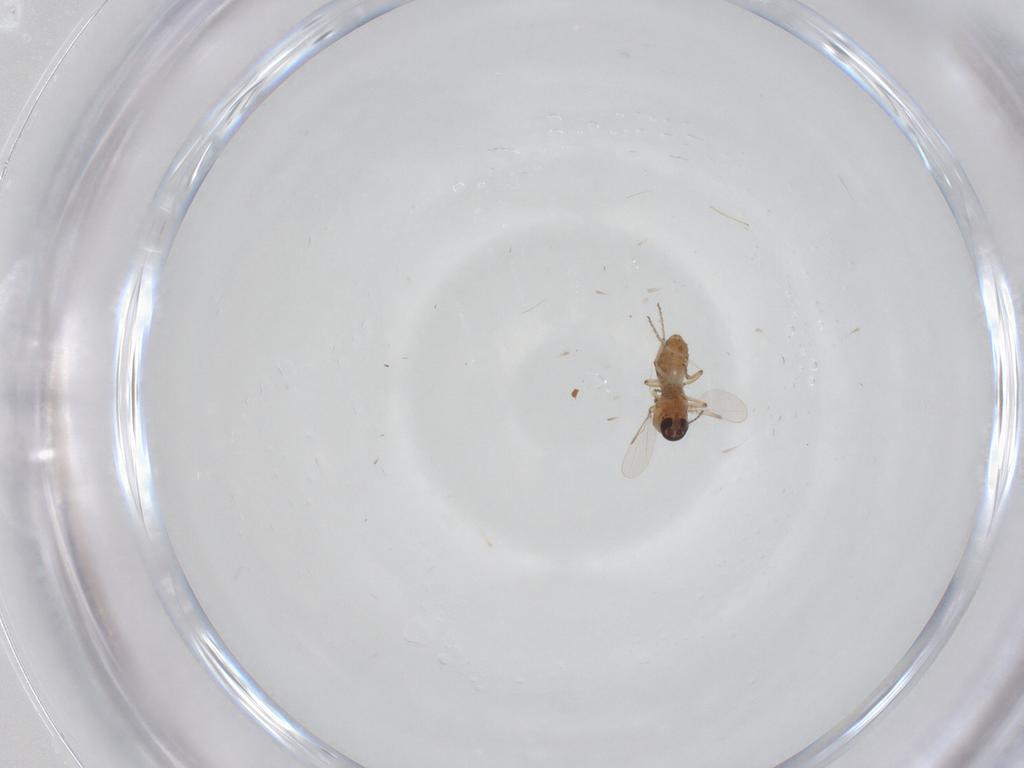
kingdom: Animalia
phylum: Arthropoda
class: Insecta
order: Diptera
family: Ceratopogonidae
